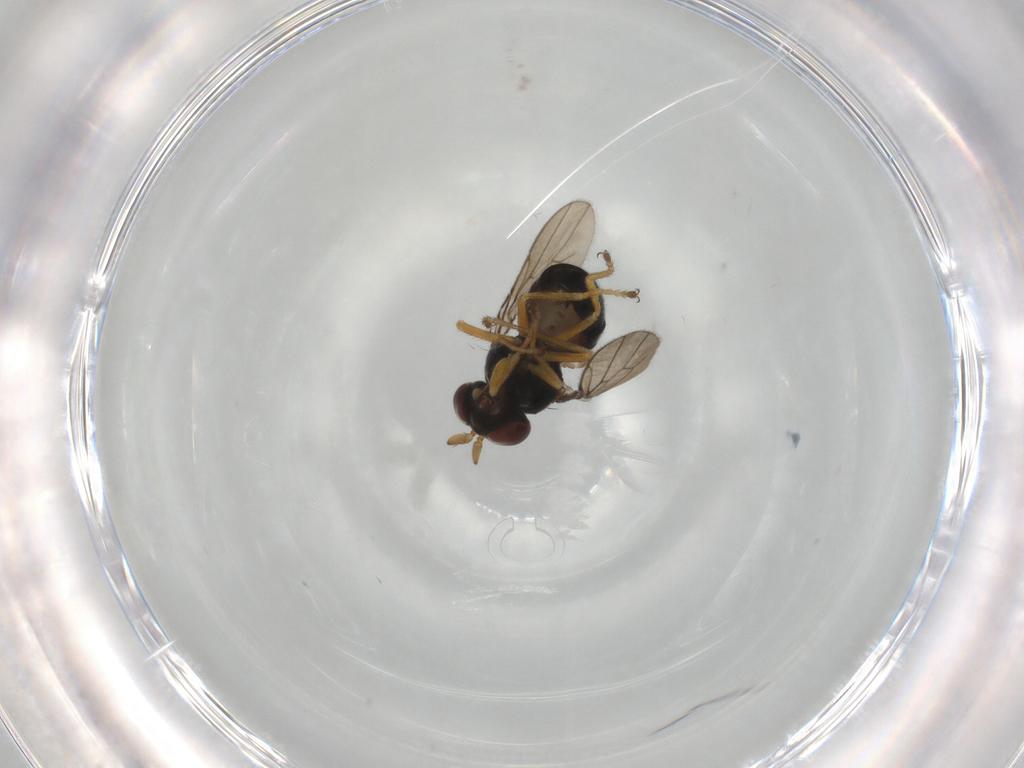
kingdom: Animalia
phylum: Arthropoda
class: Insecta
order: Diptera
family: Ephydridae
